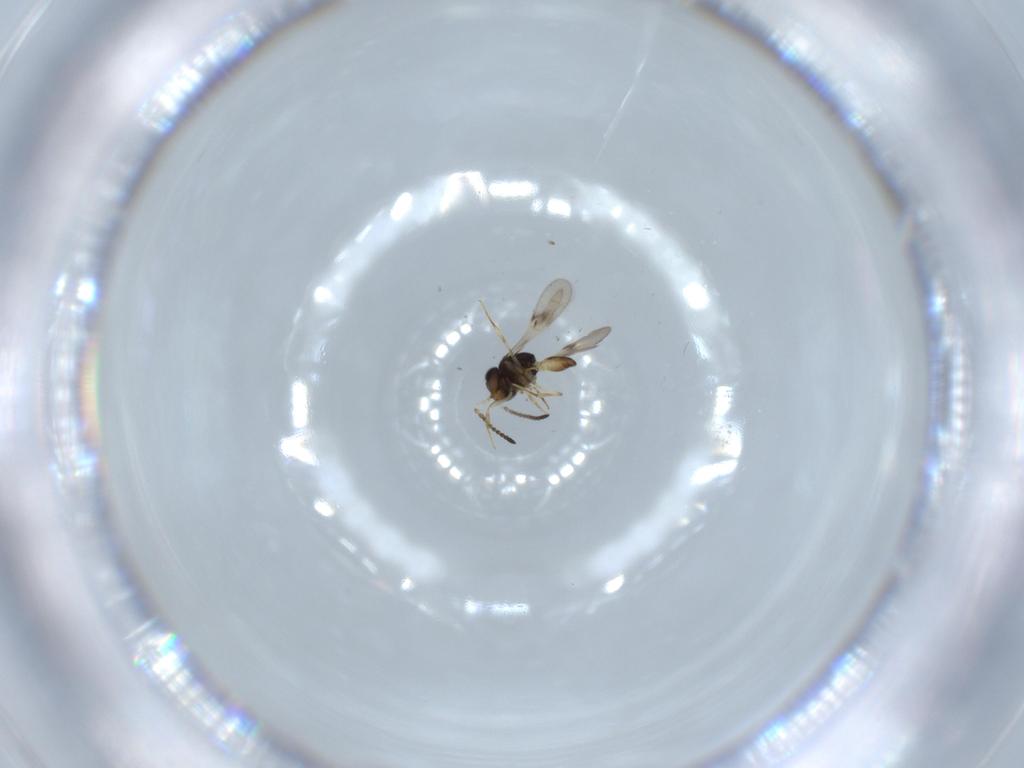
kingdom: Animalia
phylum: Arthropoda
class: Insecta
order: Hymenoptera
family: Scelionidae
